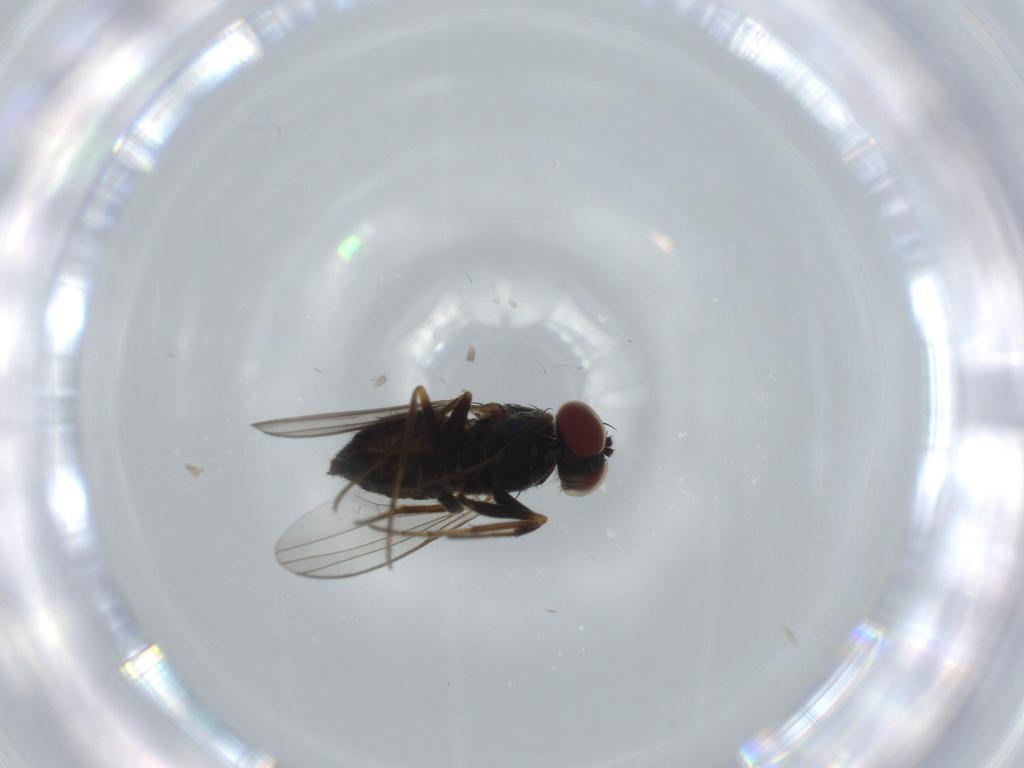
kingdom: Animalia
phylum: Arthropoda
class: Insecta
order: Diptera
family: Dolichopodidae
